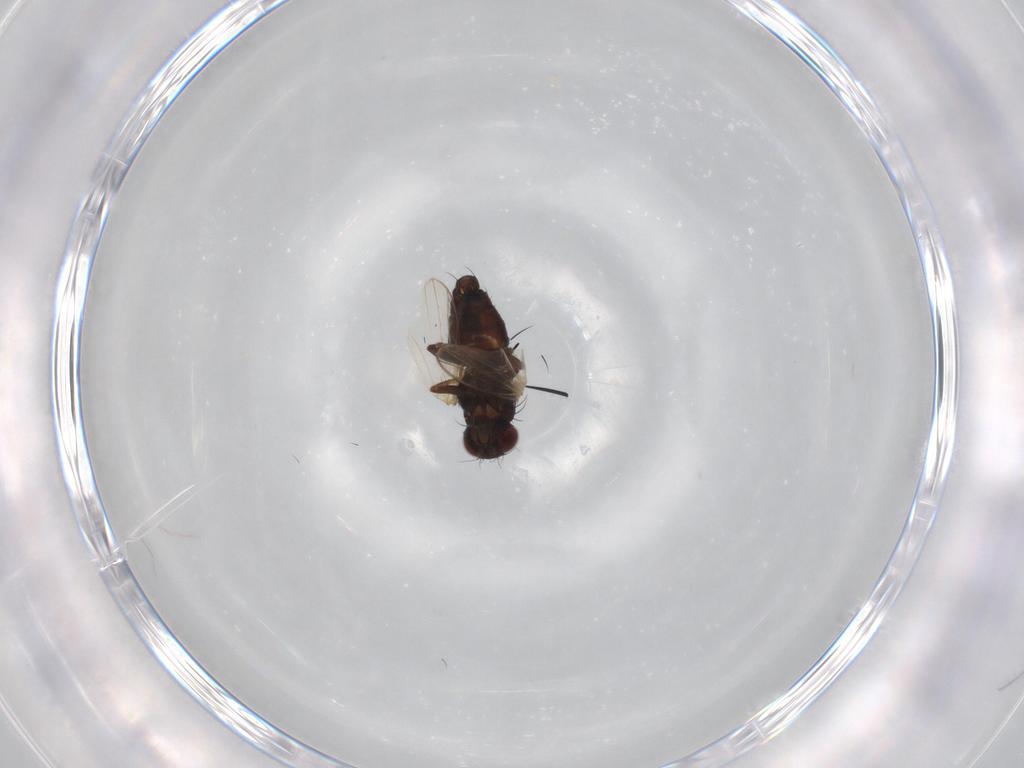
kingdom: Animalia
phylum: Arthropoda
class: Insecta
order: Diptera
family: Carnidae
